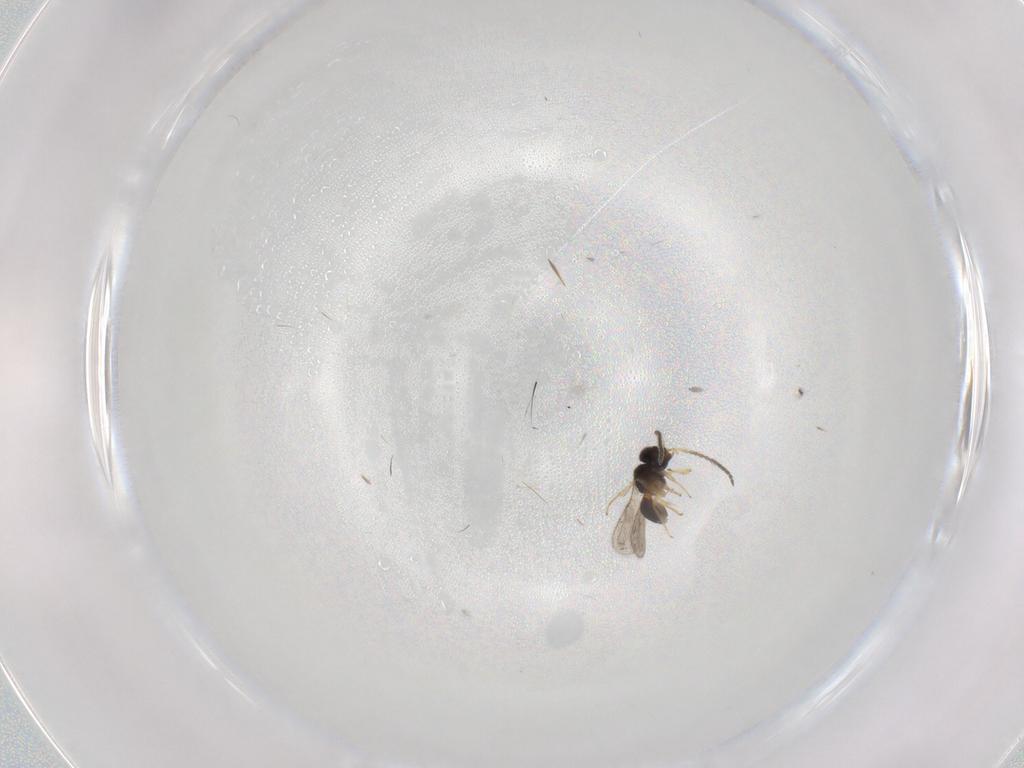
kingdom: Animalia
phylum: Arthropoda
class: Insecta
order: Hymenoptera
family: Scelionidae
